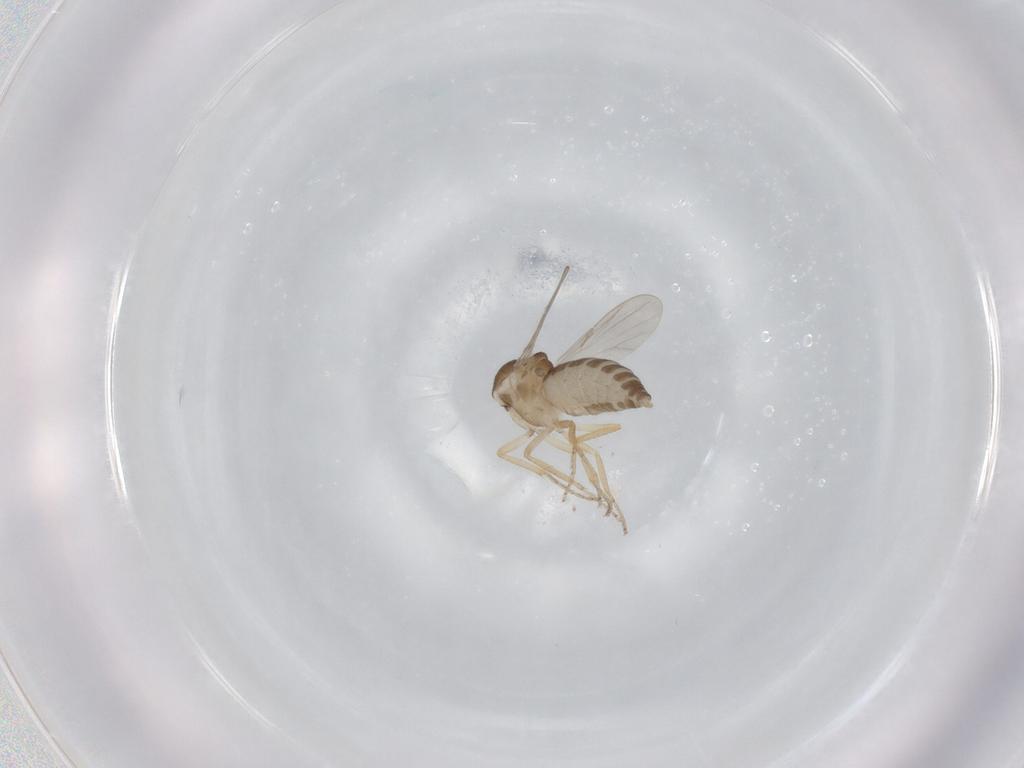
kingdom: Animalia
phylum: Arthropoda
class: Insecta
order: Diptera
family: Ceratopogonidae
